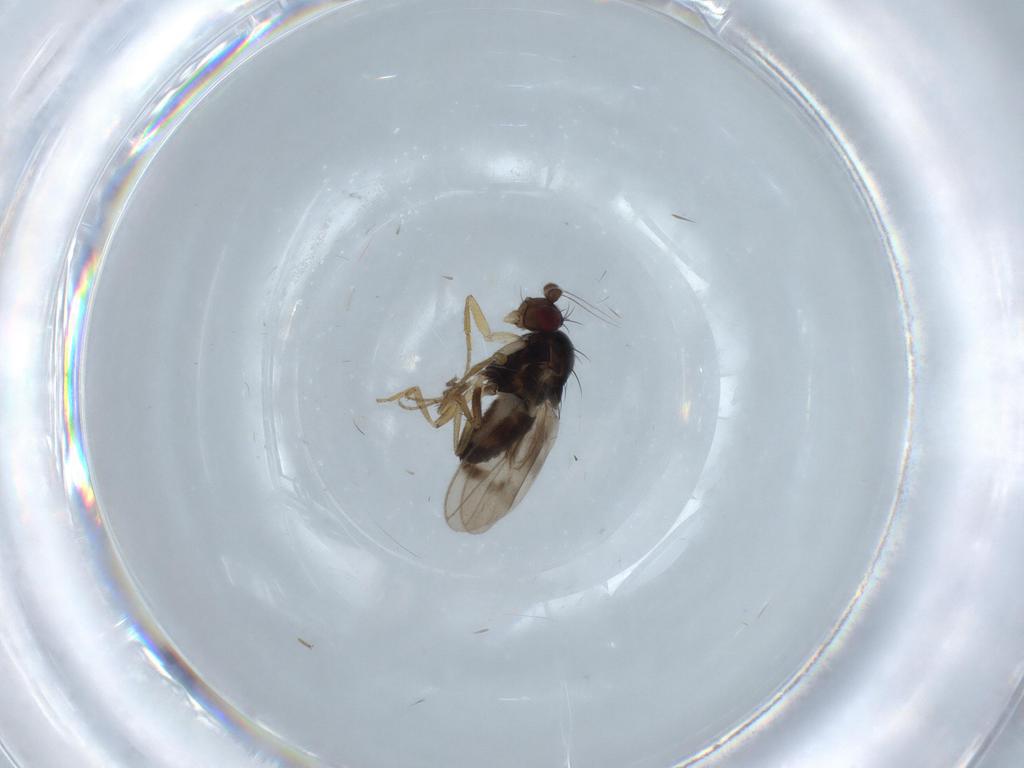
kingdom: Animalia
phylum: Arthropoda
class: Insecta
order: Diptera
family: Sphaeroceridae
